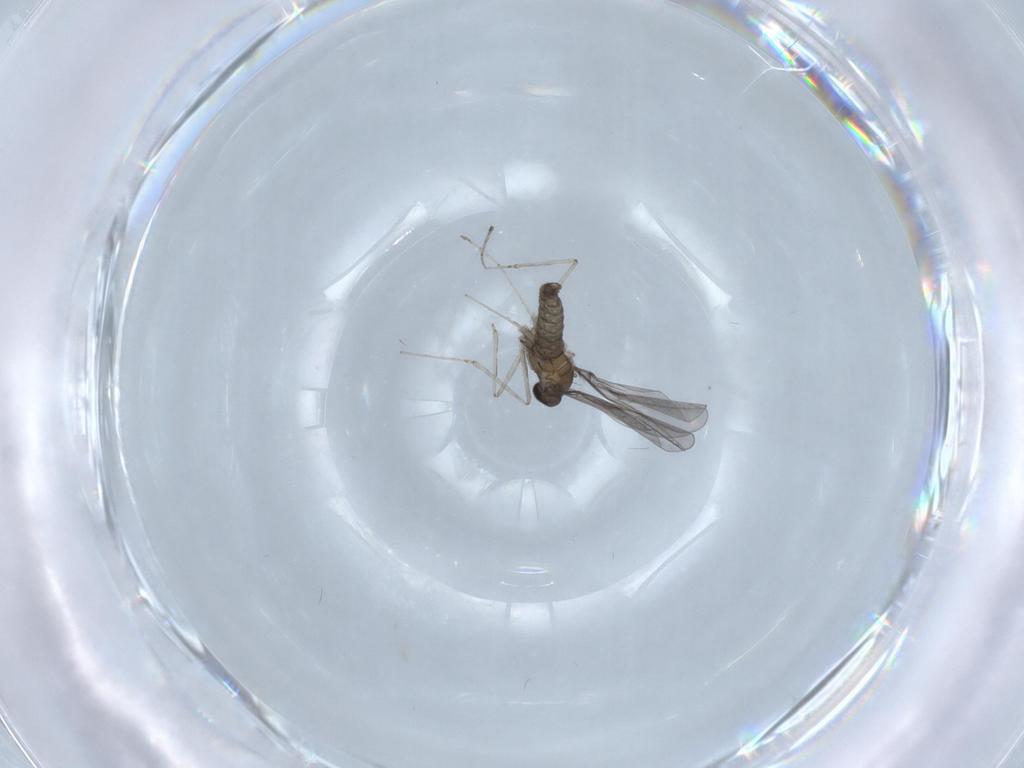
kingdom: Animalia
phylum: Arthropoda
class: Insecta
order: Diptera
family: Cecidomyiidae
